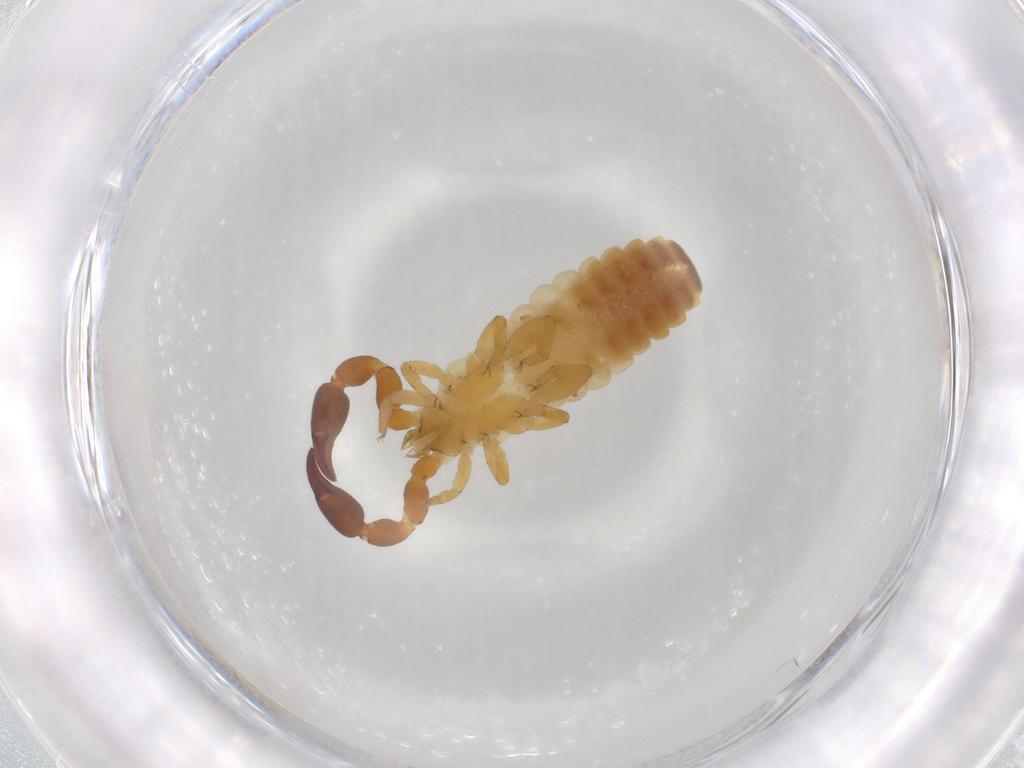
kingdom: Animalia
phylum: Arthropoda
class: Arachnida
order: Pseudoscorpiones
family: Chernetidae
